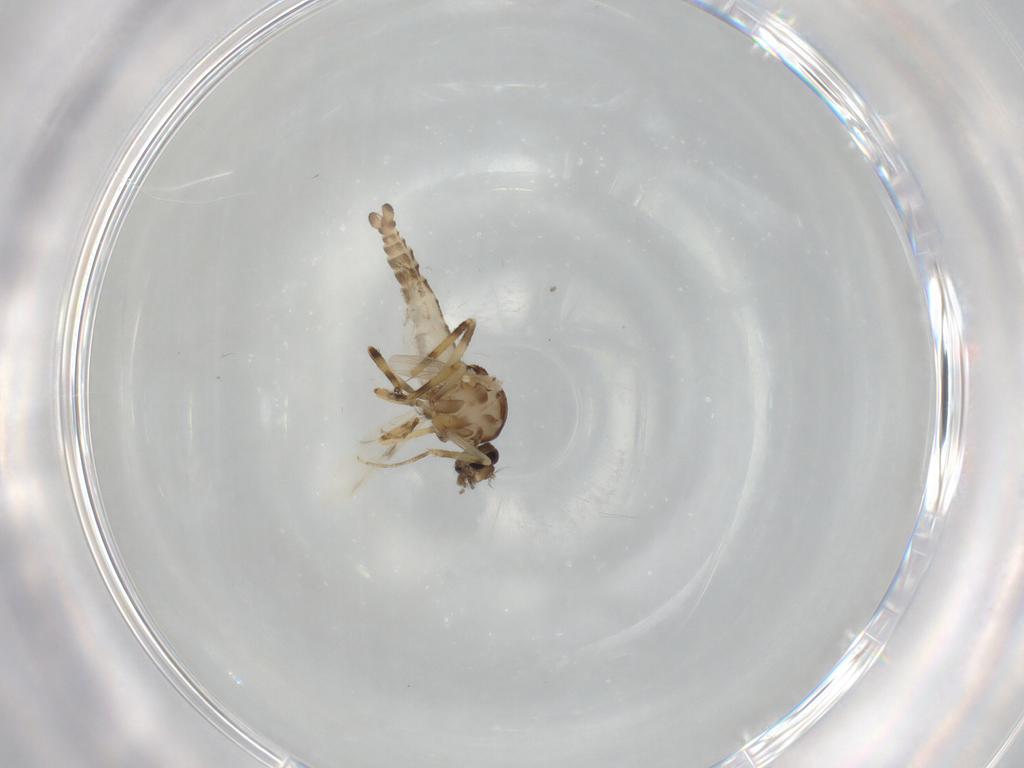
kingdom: Animalia
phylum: Arthropoda
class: Insecta
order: Diptera
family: Ceratopogonidae
